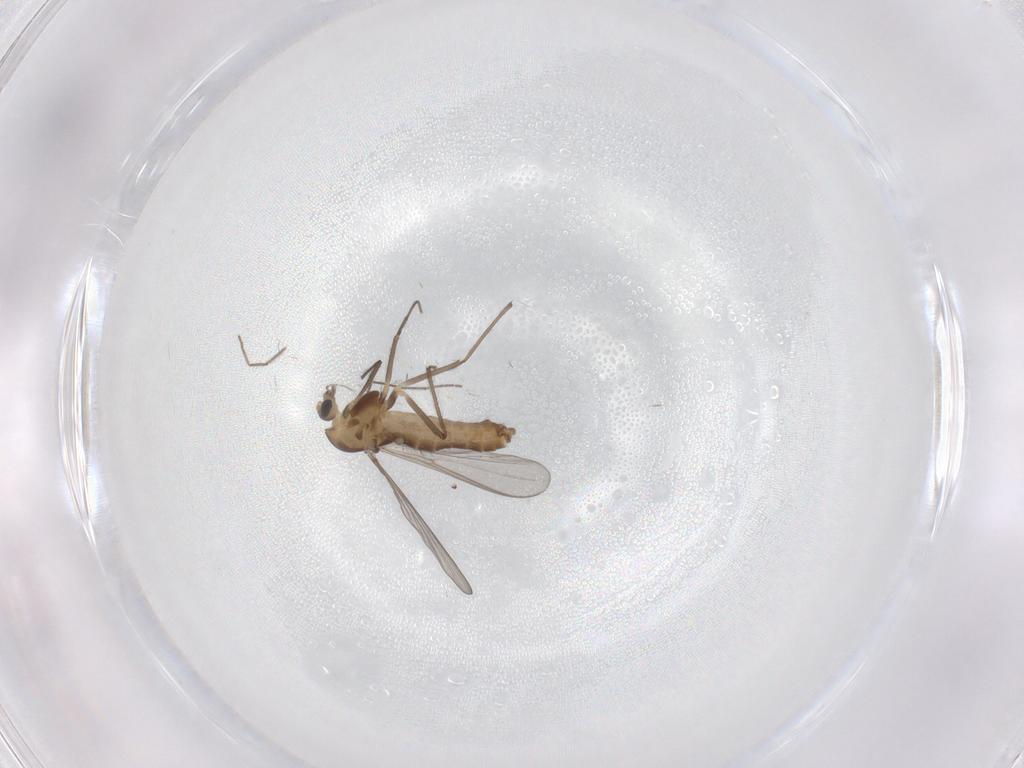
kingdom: Animalia
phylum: Arthropoda
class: Insecta
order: Diptera
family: Chironomidae
